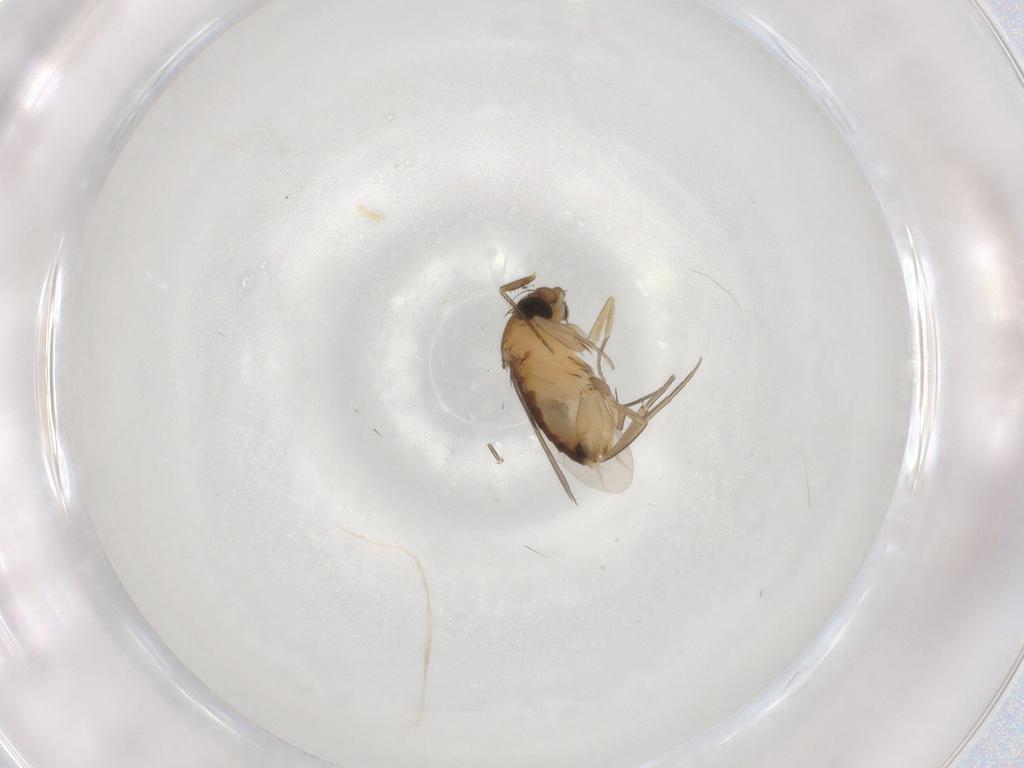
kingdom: Animalia
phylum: Arthropoda
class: Insecta
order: Diptera
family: Phoridae
